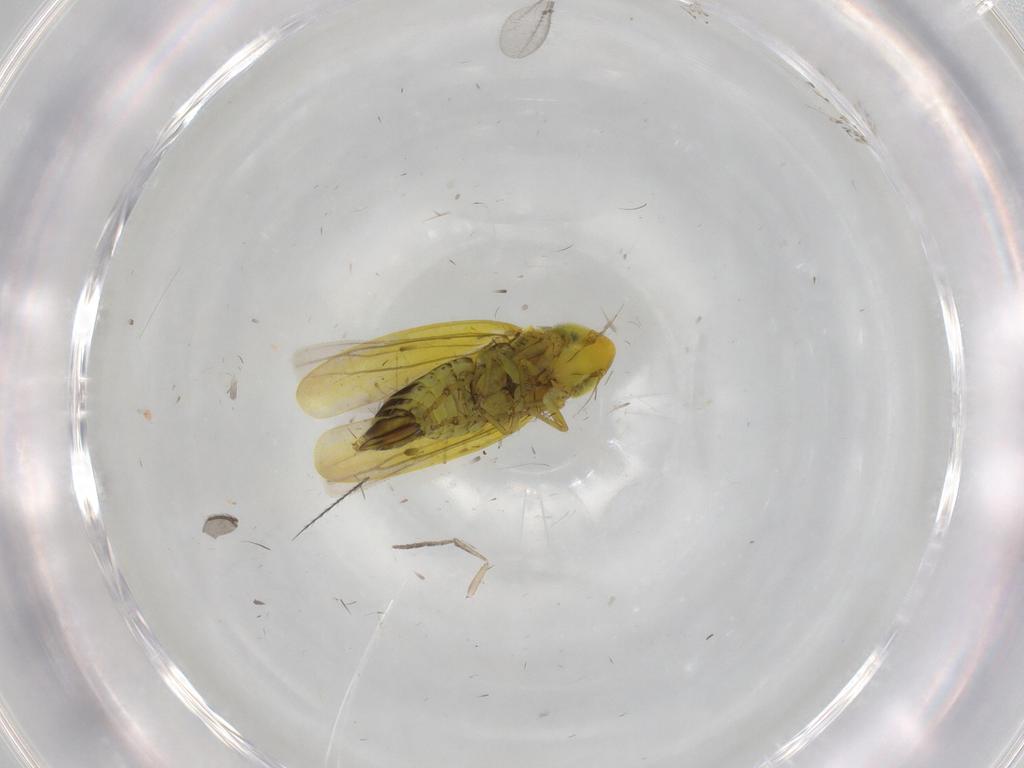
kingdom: Animalia
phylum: Arthropoda
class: Insecta
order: Hemiptera
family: Cicadellidae
